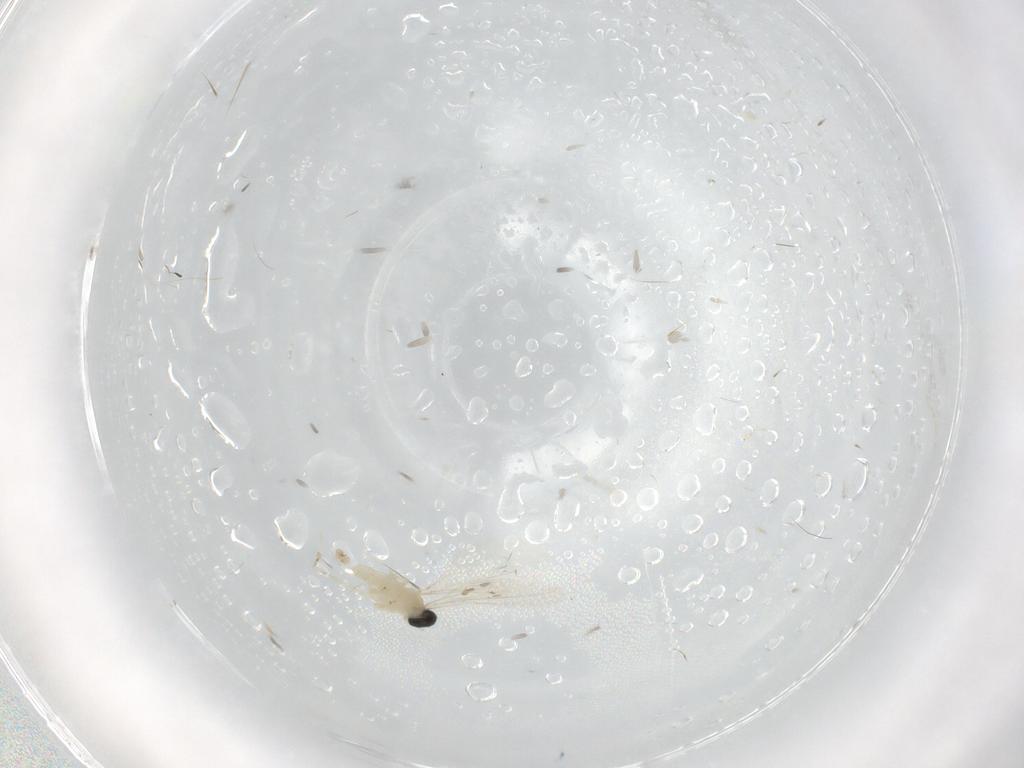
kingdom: Animalia
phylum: Arthropoda
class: Insecta
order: Diptera
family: Cecidomyiidae
